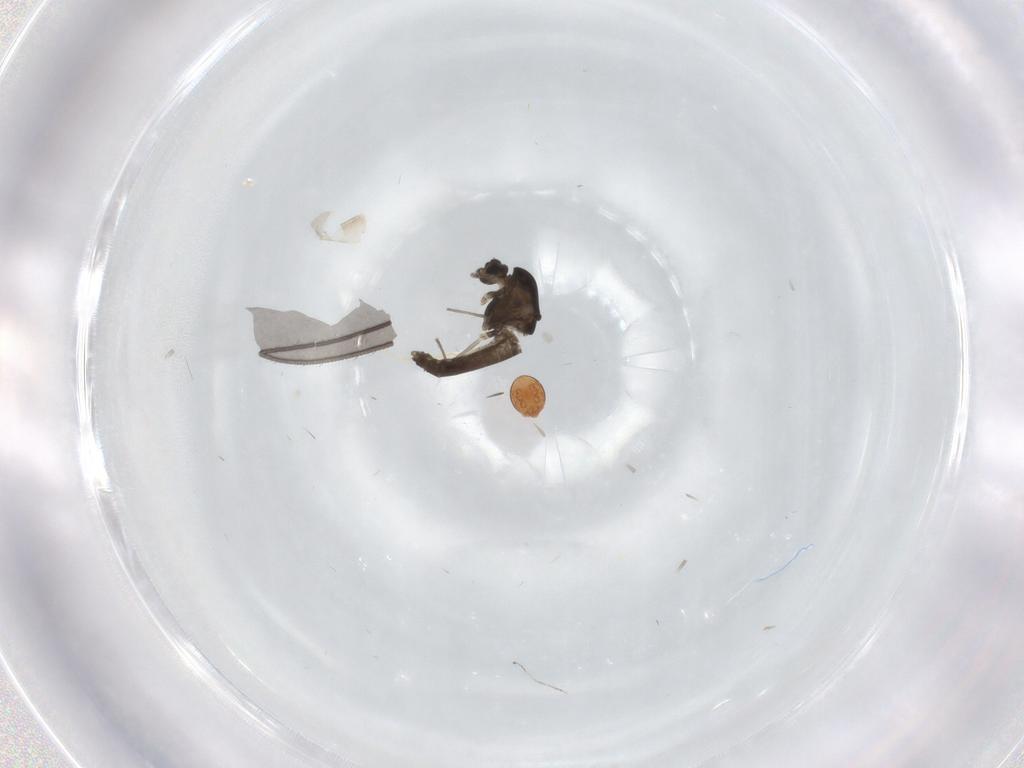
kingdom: Animalia
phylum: Arthropoda
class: Insecta
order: Diptera
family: Chironomidae
